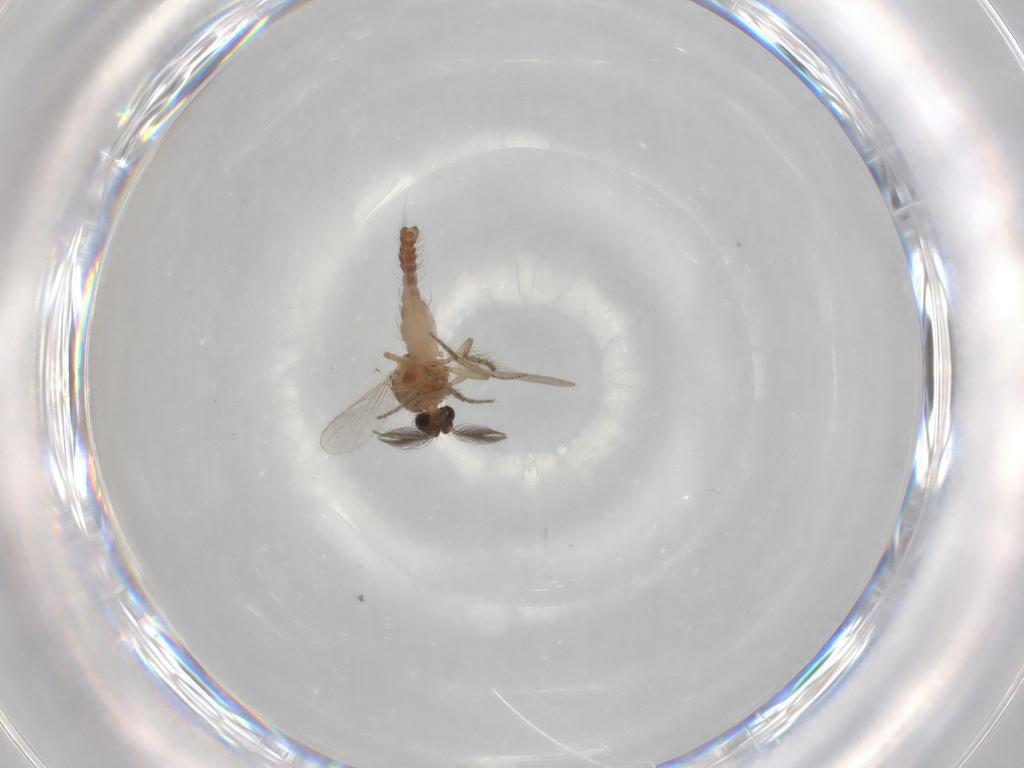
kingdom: Animalia
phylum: Arthropoda
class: Insecta
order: Diptera
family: Ceratopogonidae
